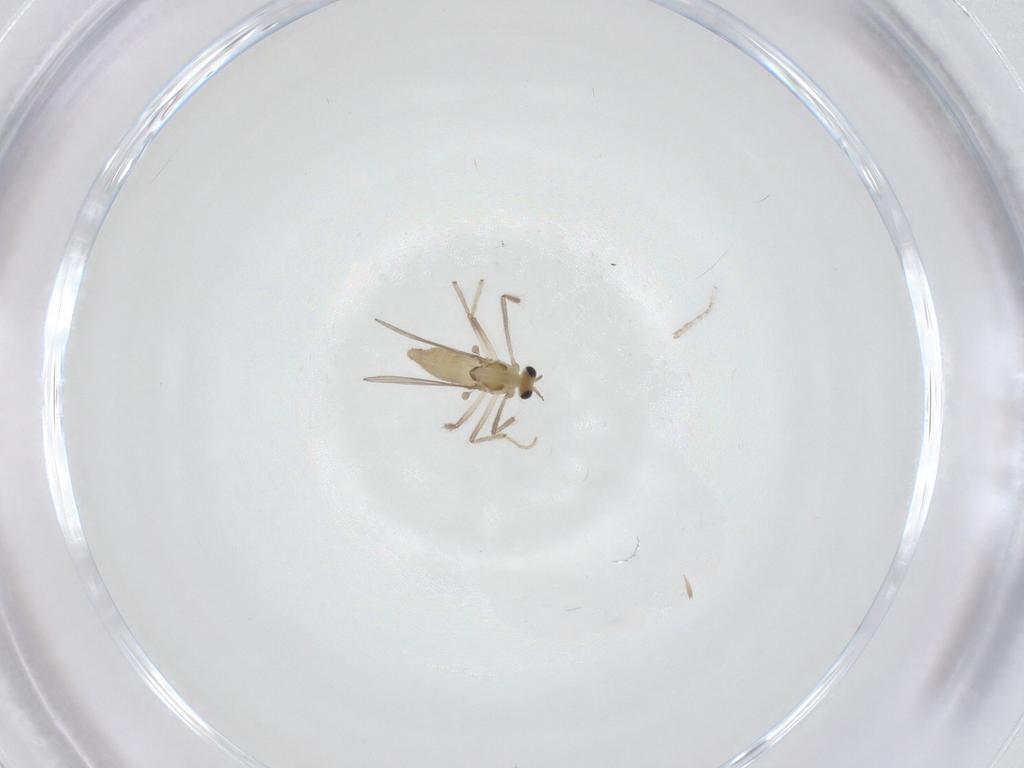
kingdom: Animalia
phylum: Arthropoda
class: Insecta
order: Diptera
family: Chironomidae
